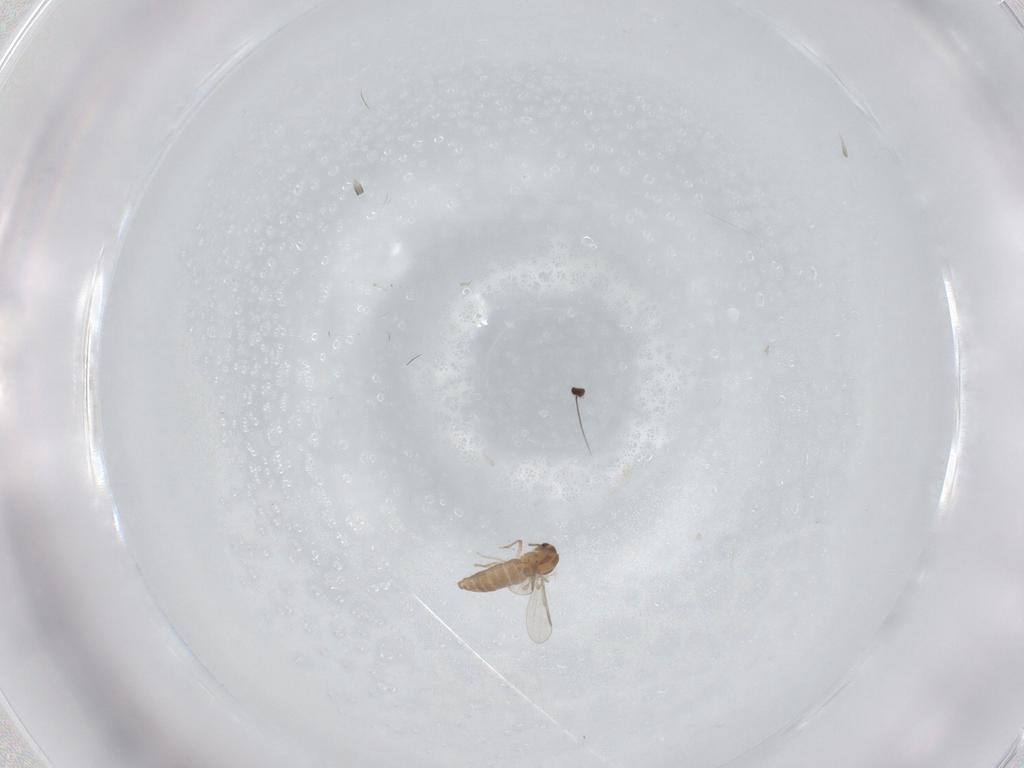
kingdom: Animalia
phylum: Arthropoda
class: Insecta
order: Diptera
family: Chironomidae
